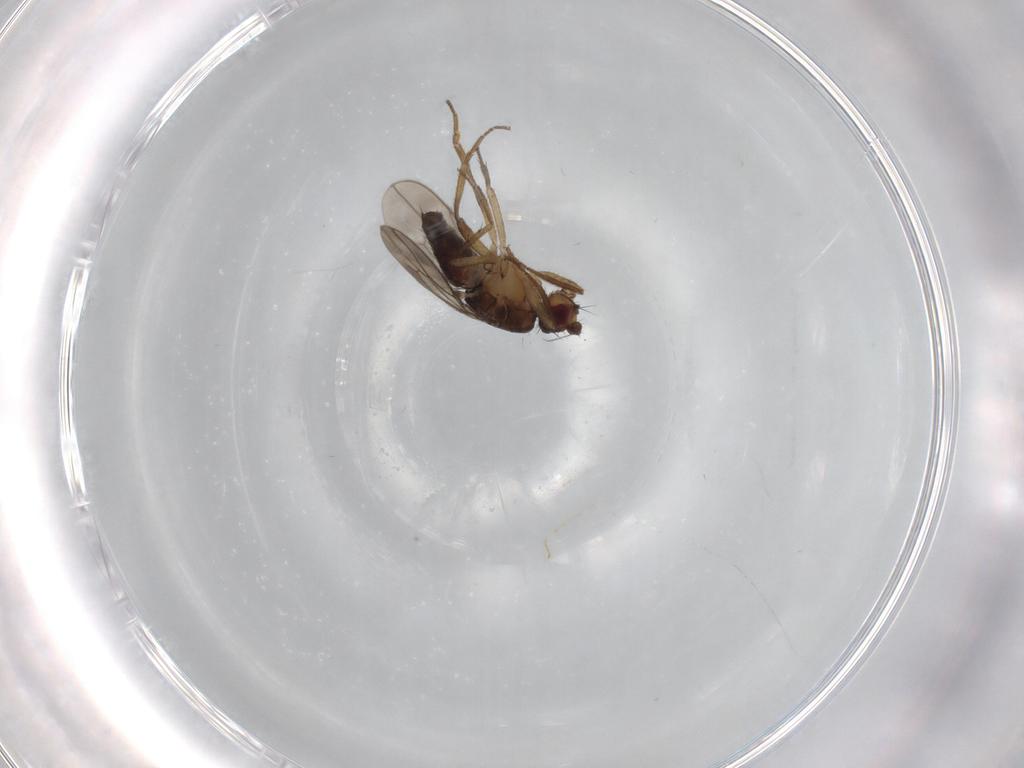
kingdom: Animalia
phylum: Arthropoda
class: Insecta
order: Diptera
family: Sphaeroceridae
